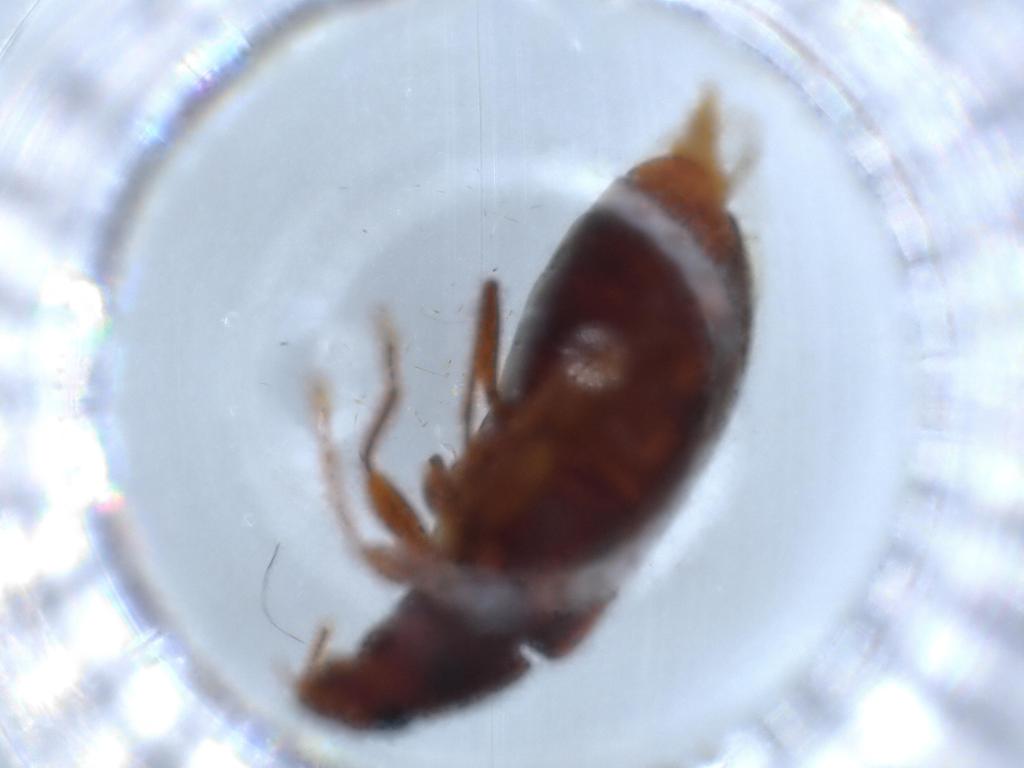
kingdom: Animalia
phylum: Arthropoda
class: Insecta
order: Coleoptera
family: Mycteridae
